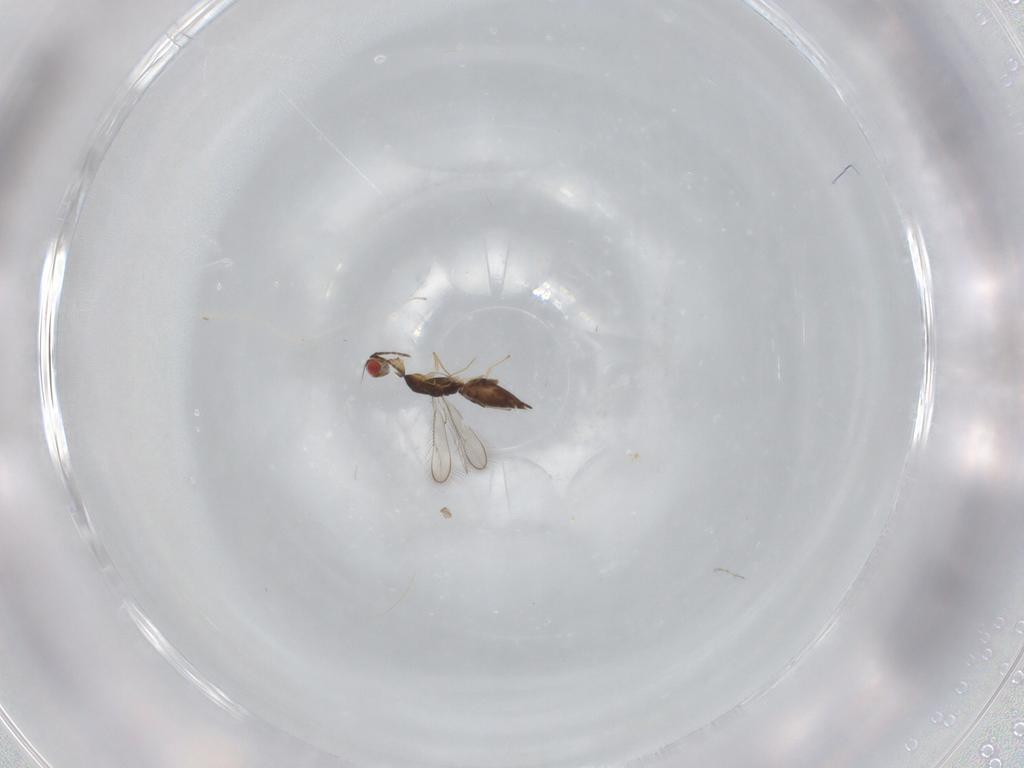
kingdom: Animalia
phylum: Arthropoda
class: Insecta
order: Hymenoptera
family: Eulophidae
